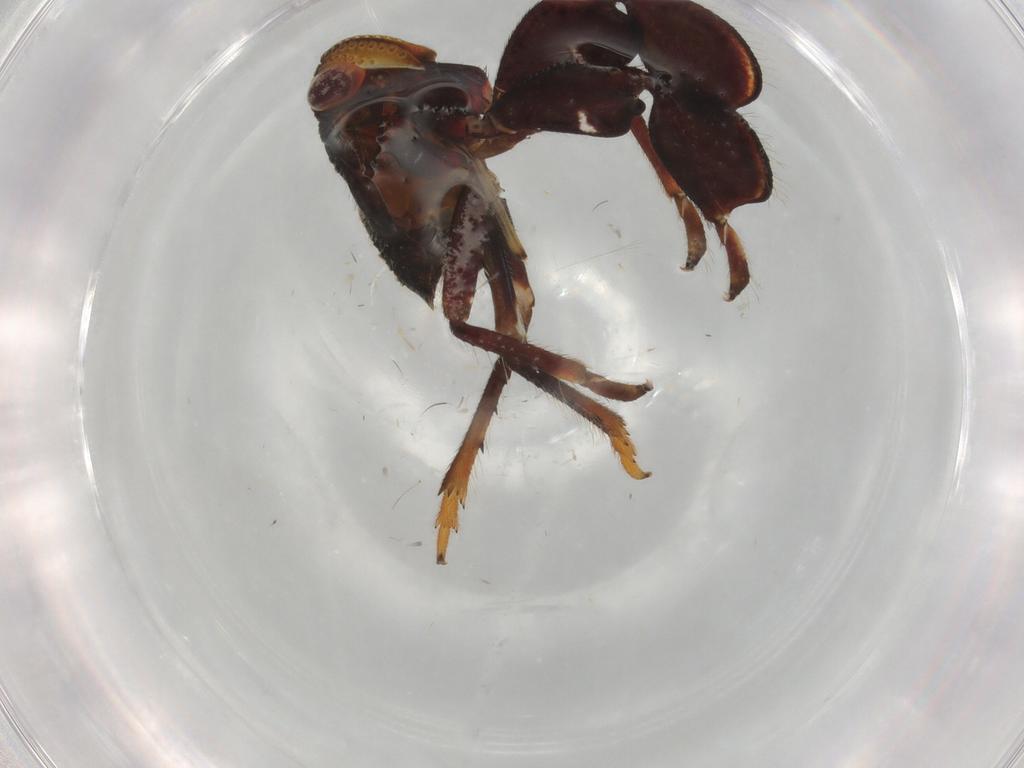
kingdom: Animalia
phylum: Arthropoda
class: Insecta
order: Hemiptera
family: Caliscelidae
